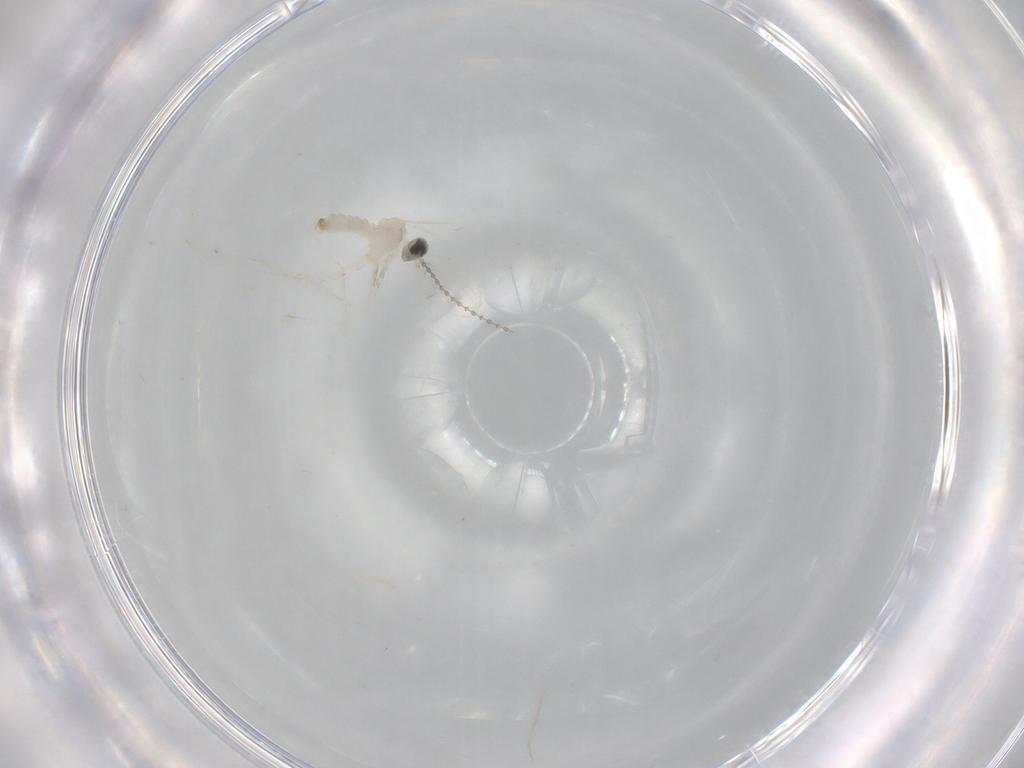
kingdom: Animalia
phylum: Arthropoda
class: Insecta
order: Diptera
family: Cecidomyiidae
